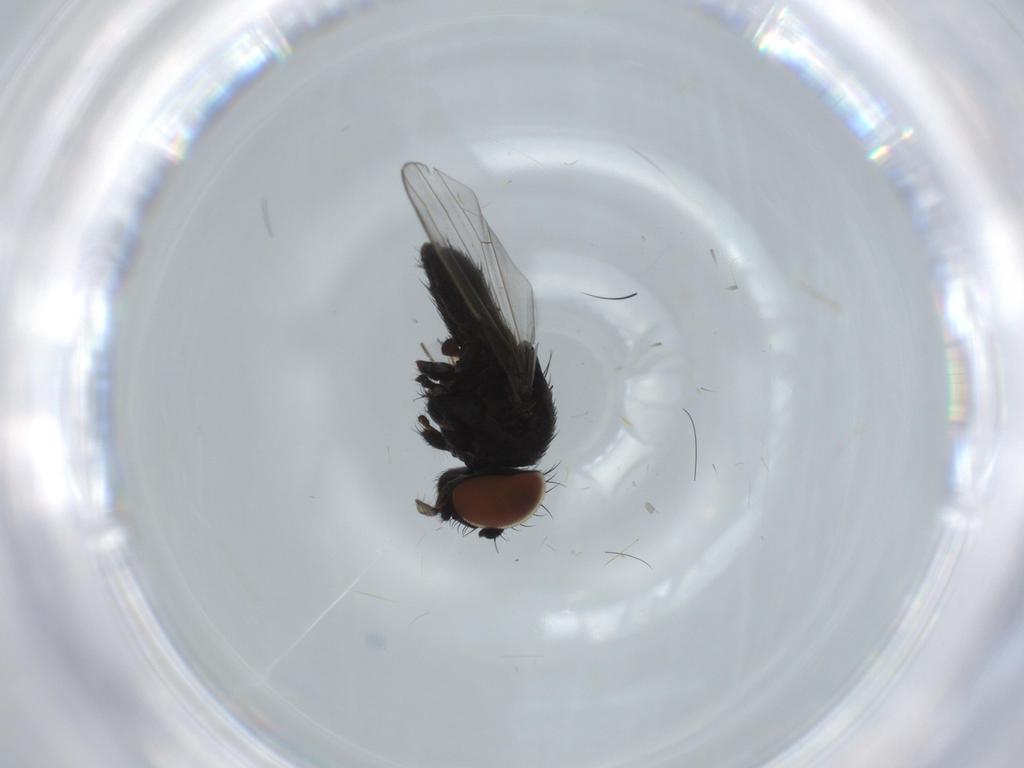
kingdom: Animalia
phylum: Arthropoda
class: Insecta
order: Diptera
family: Milichiidae
